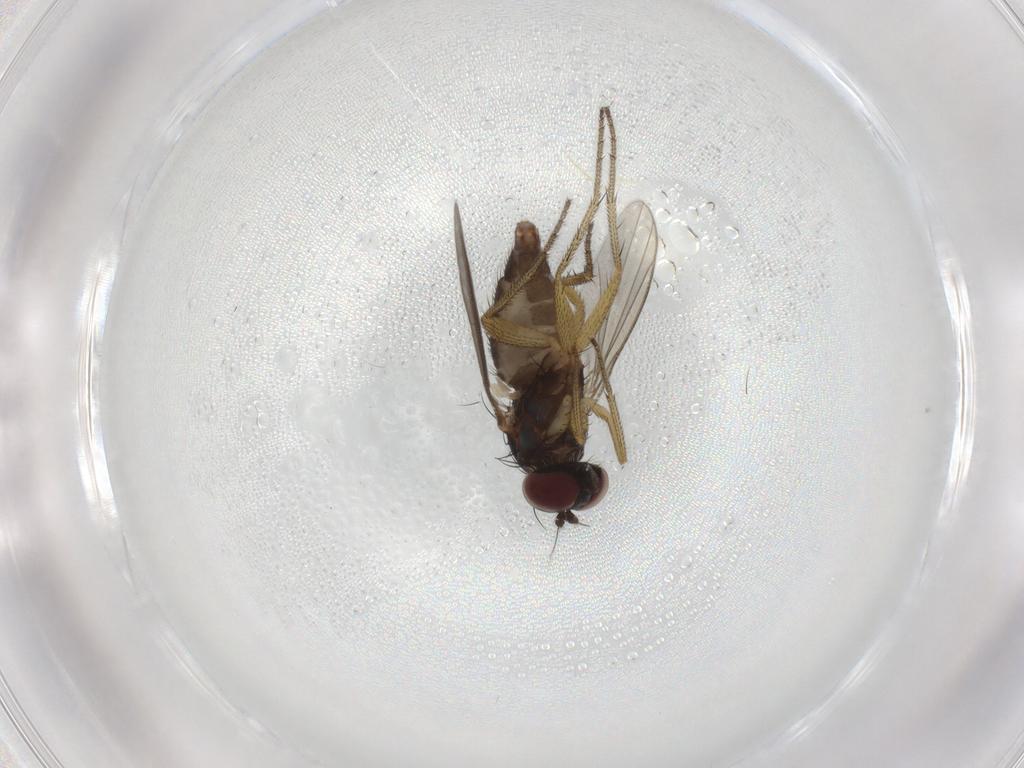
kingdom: Animalia
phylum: Arthropoda
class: Insecta
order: Diptera
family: Dolichopodidae
